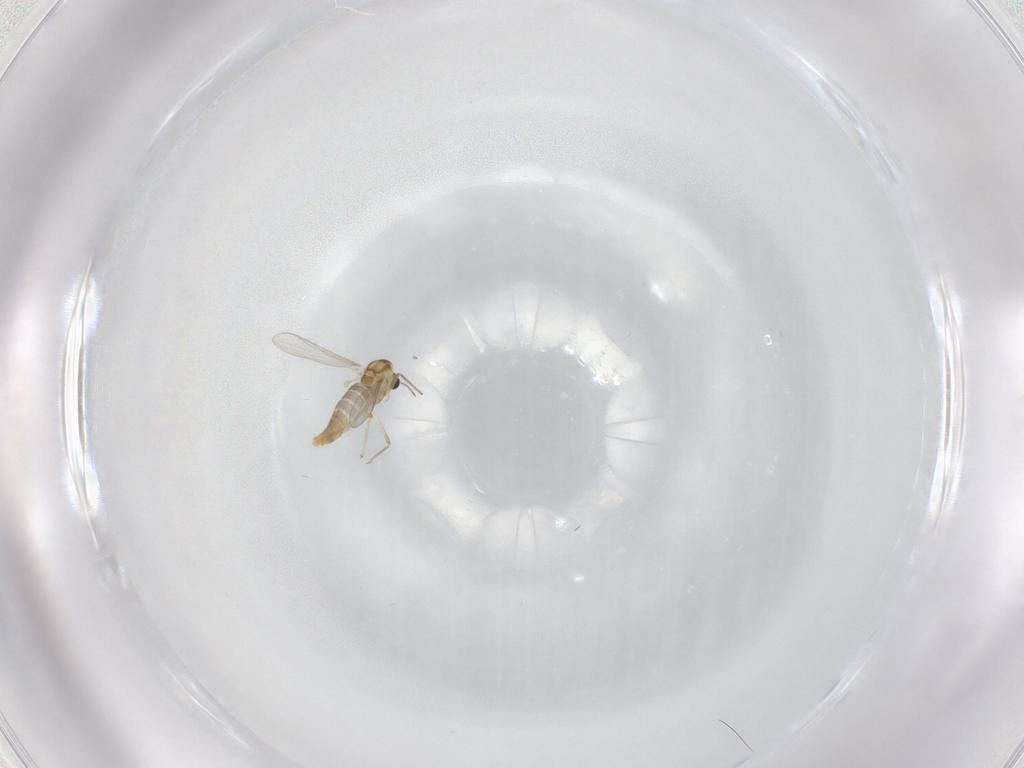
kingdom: Animalia
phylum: Arthropoda
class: Insecta
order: Diptera
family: Chironomidae
